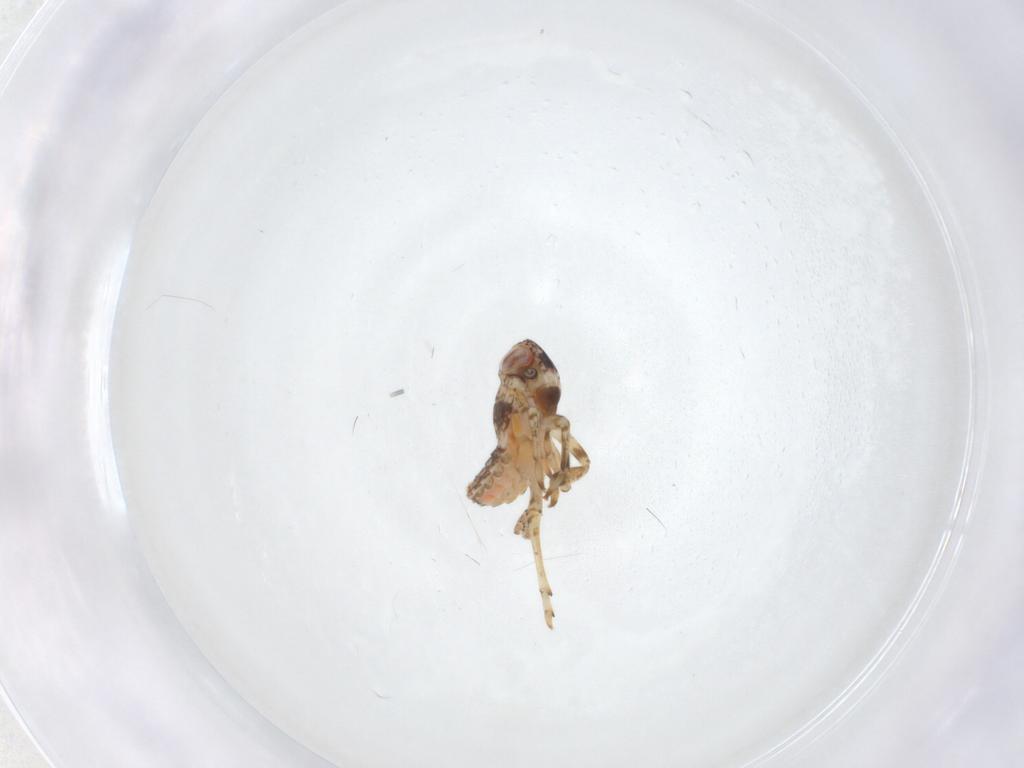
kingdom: Animalia
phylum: Arthropoda
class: Insecta
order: Hemiptera
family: Issidae
